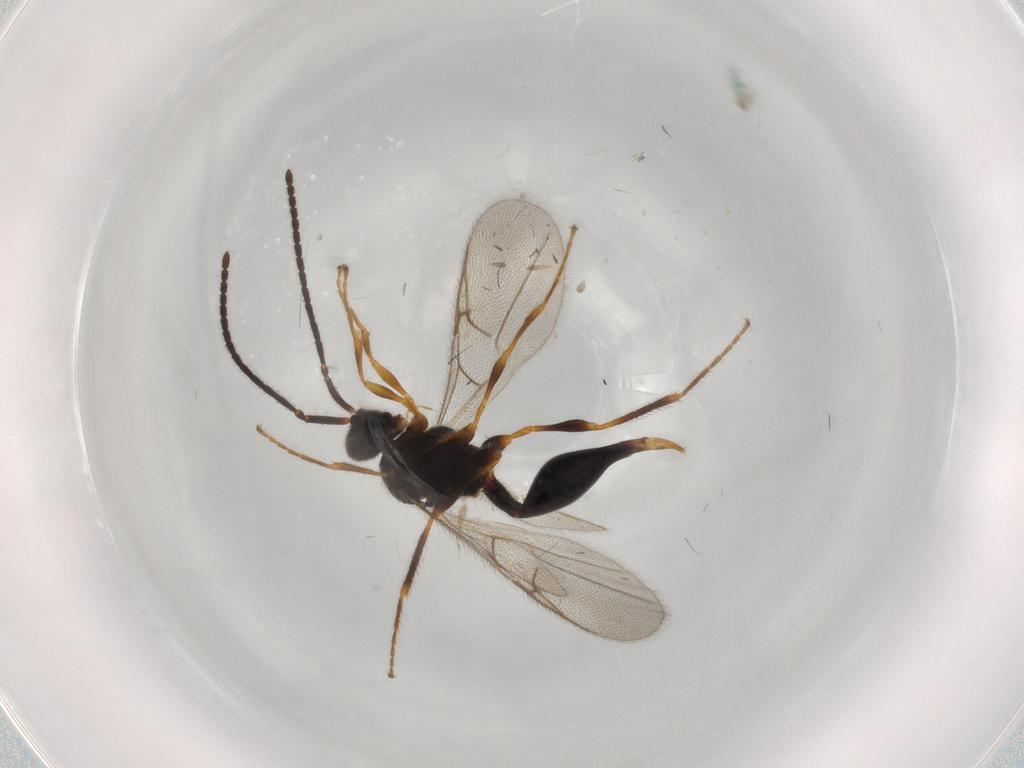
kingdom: Animalia
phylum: Arthropoda
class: Insecta
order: Hymenoptera
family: Diapriidae
